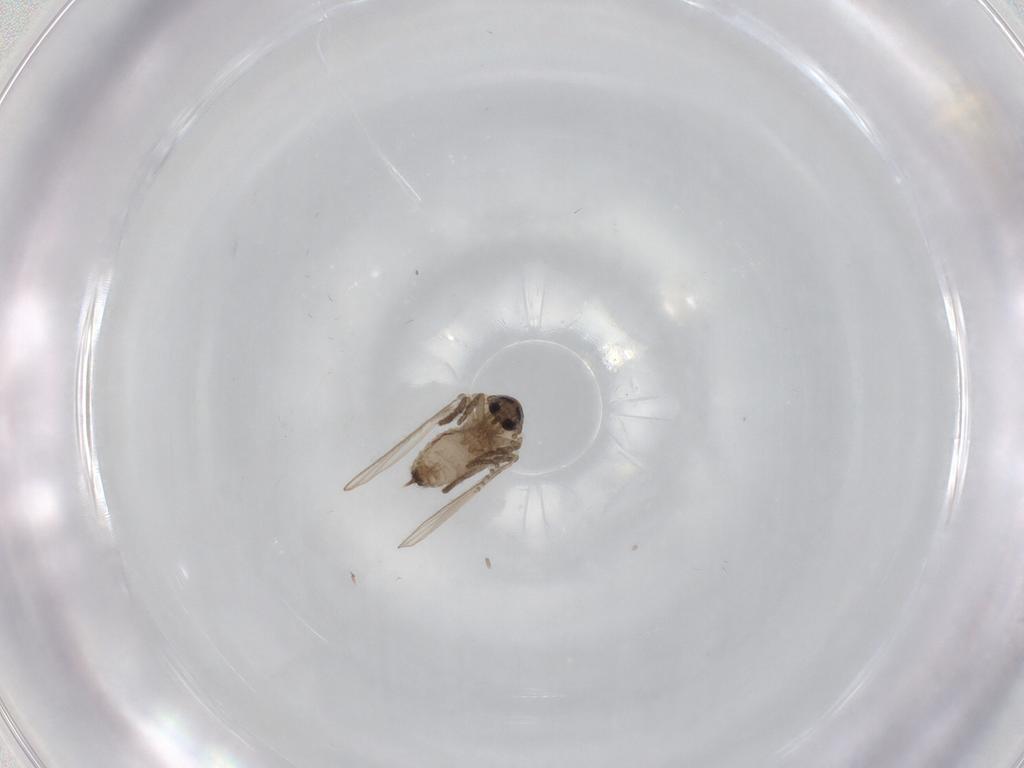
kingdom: Animalia
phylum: Arthropoda
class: Insecta
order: Diptera
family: Psychodidae
